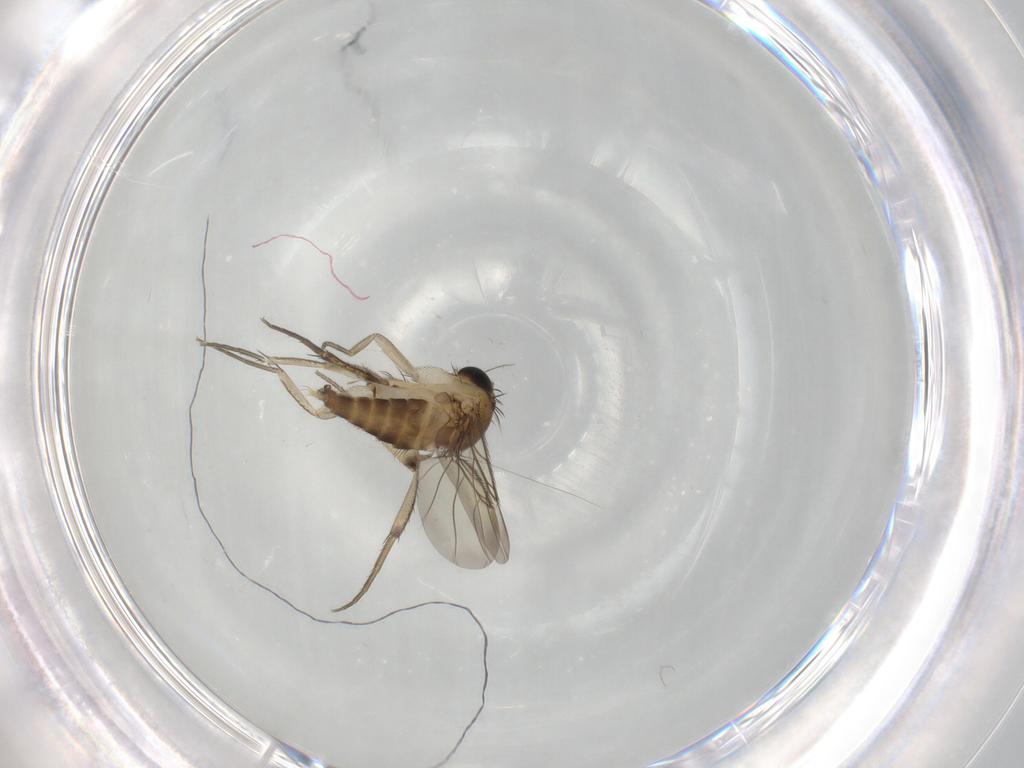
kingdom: Animalia
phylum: Arthropoda
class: Insecta
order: Diptera
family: Phoridae
